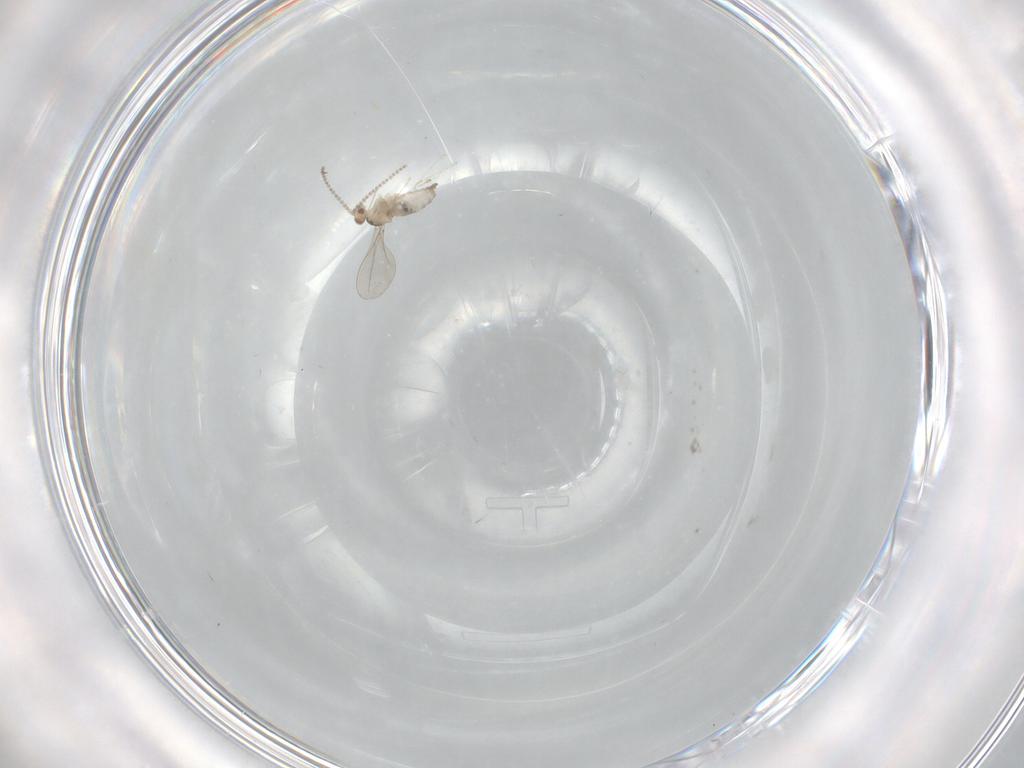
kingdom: Animalia
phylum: Arthropoda
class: Insecta
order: Diptera
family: Cecidomyiidae
